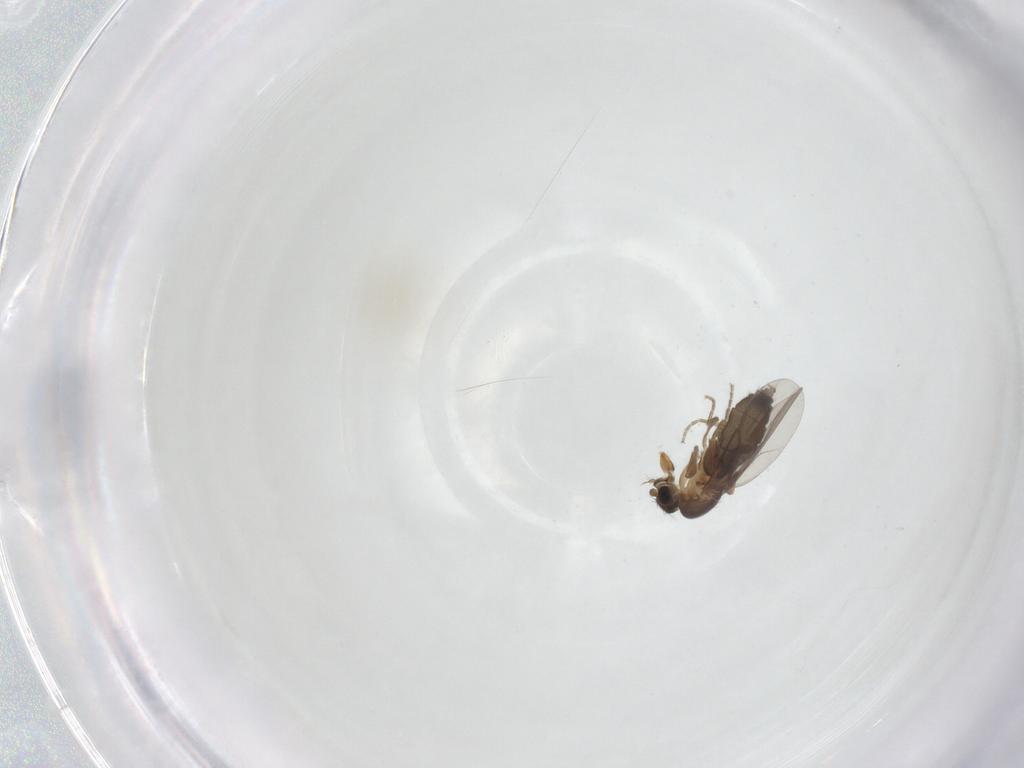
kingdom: Animalia
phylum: Arthropoda
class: Insecta
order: Diptera
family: Phoridae
